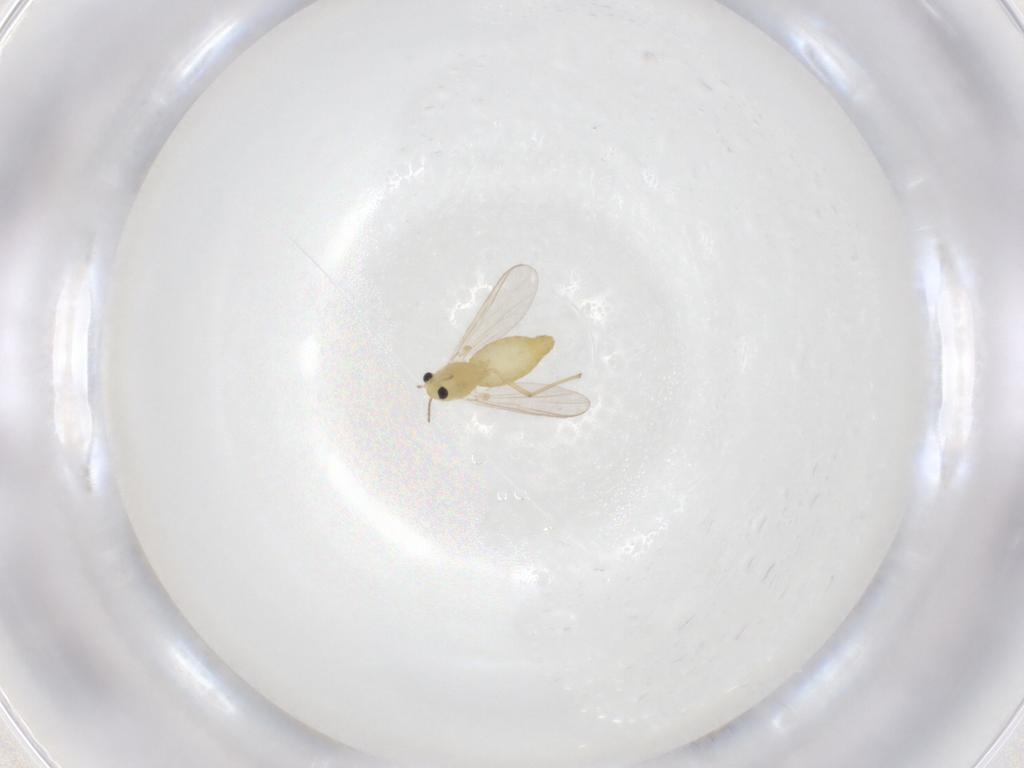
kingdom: Animalia
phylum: Arthropoda
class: Insecta
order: Diptera
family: Chironomidae
